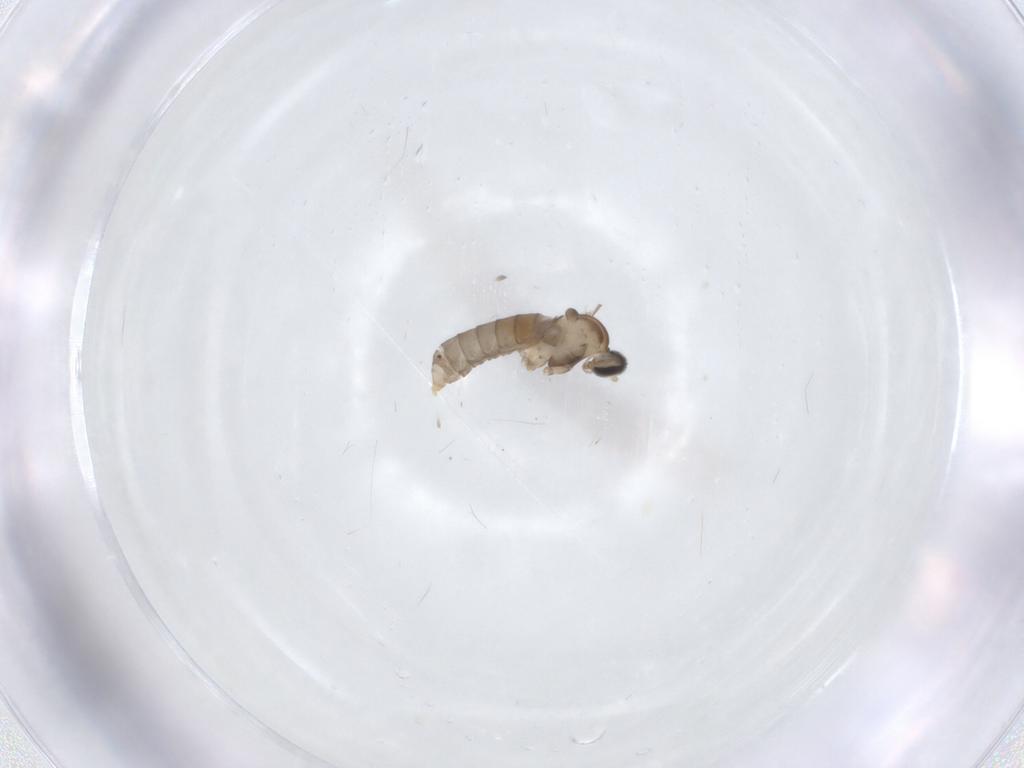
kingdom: Animalia
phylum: Arthropoda
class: Insecta
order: Diptera
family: Cecidomyiidae
